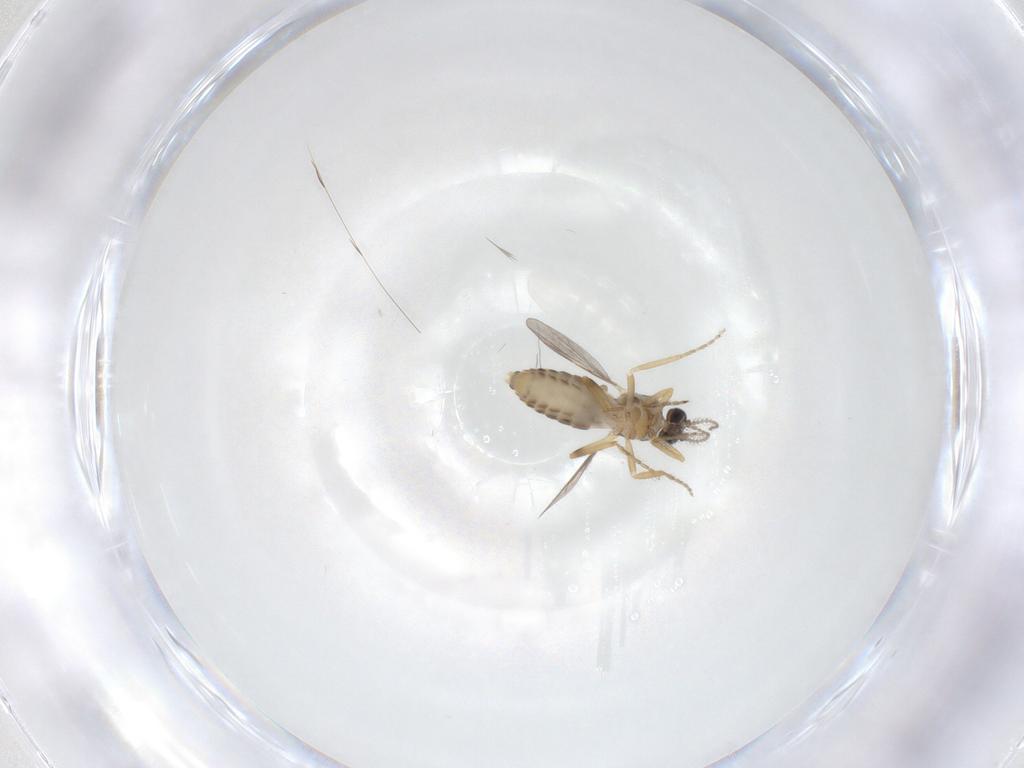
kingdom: Animalia
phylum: Arthropoda
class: Insecta
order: Diptera
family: Ceratopogonidae
